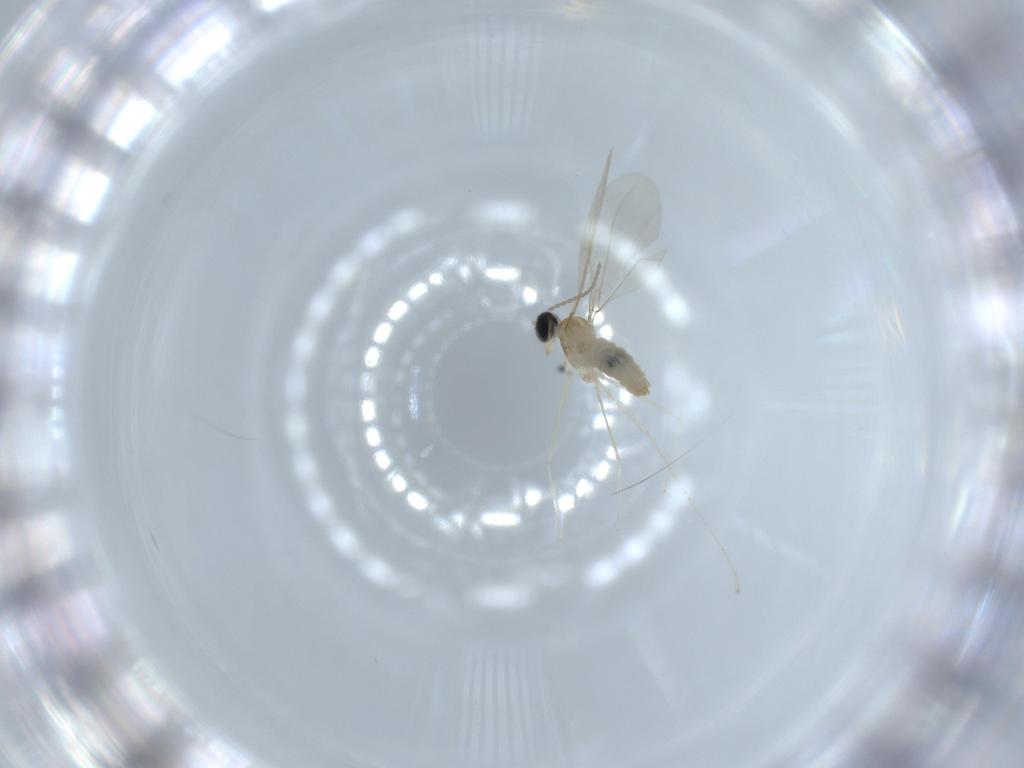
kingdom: Animalia
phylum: Arthropoda
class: Insecta
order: Diptera
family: Cecidomyiidae
